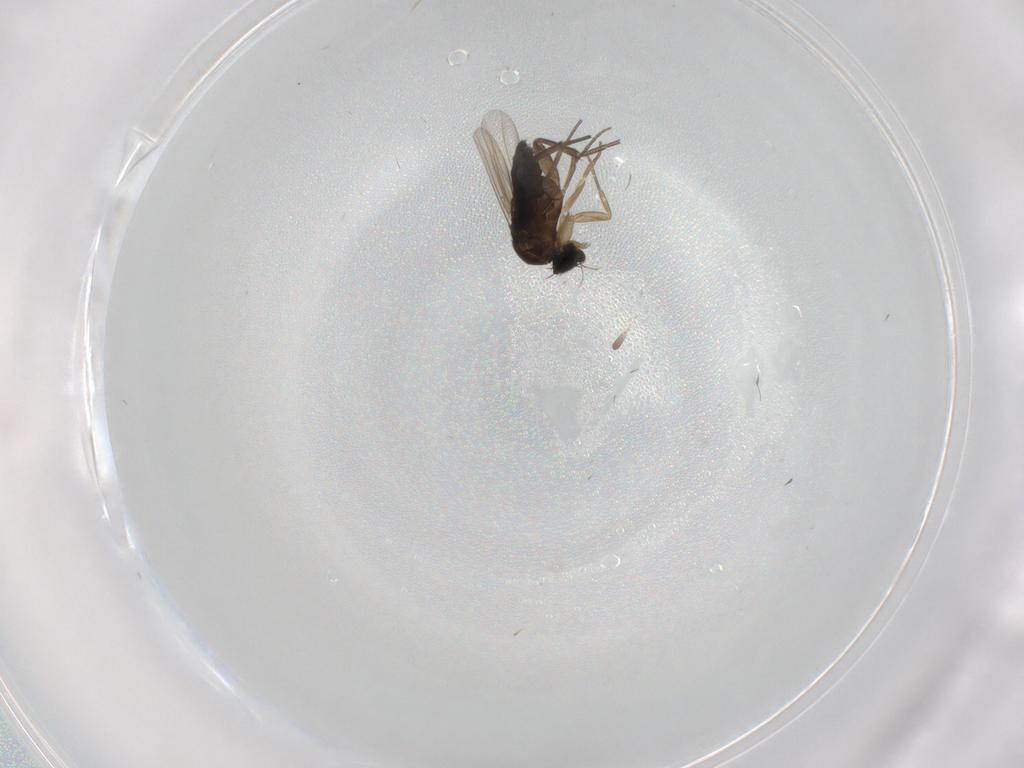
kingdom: Animalia
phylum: Arthropoda
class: Insecta
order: Diptera
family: Phoridae
